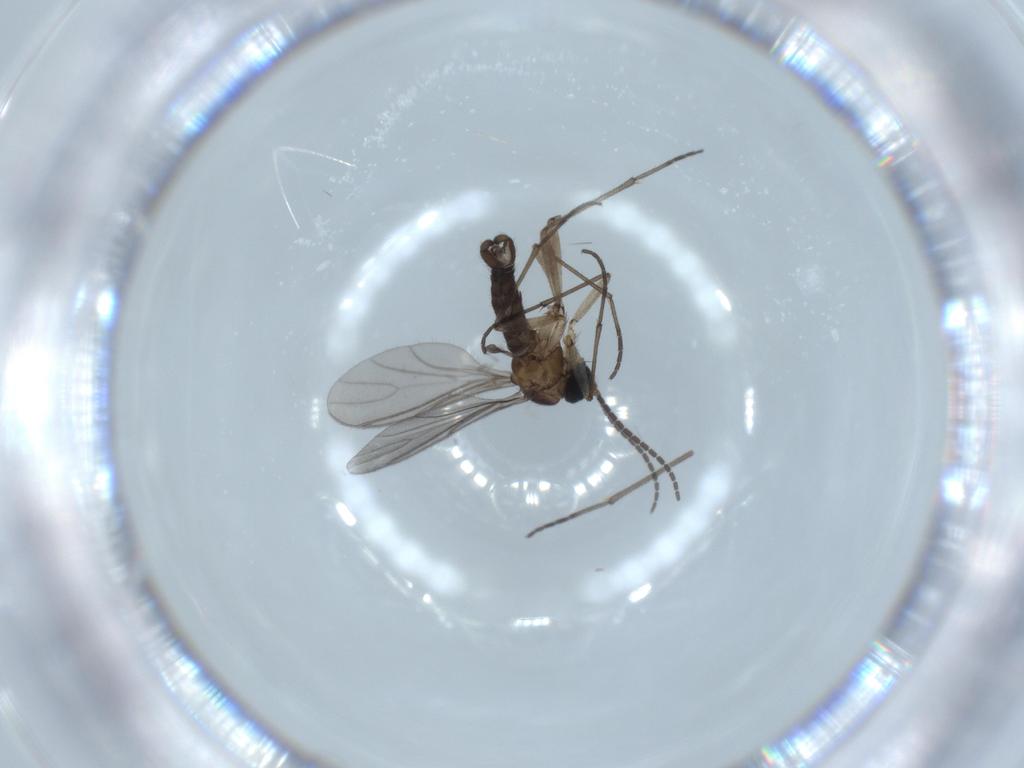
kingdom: Animalia
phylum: Arthropoda
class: Insecta
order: Diptera
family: Sciaridae
